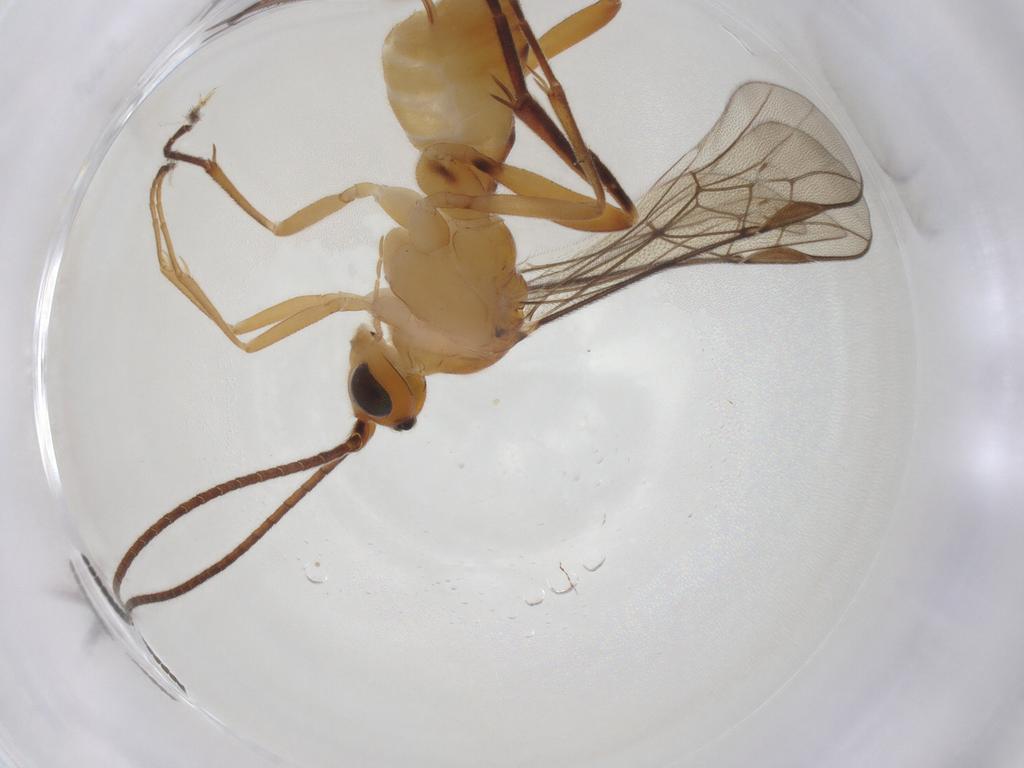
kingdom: Animalia
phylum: Arthropoda
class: Insecta
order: Hymenoptera
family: Braconidae
